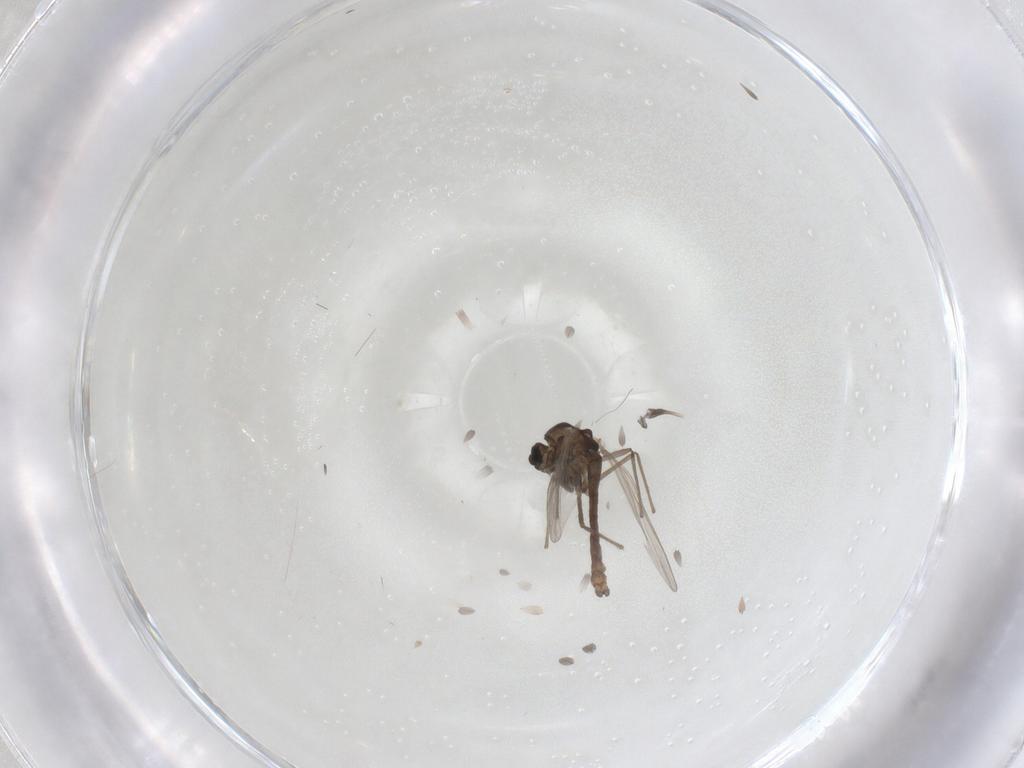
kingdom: Animalia
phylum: Arthropoda
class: Insecta
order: Diptera
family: Chironomidae
